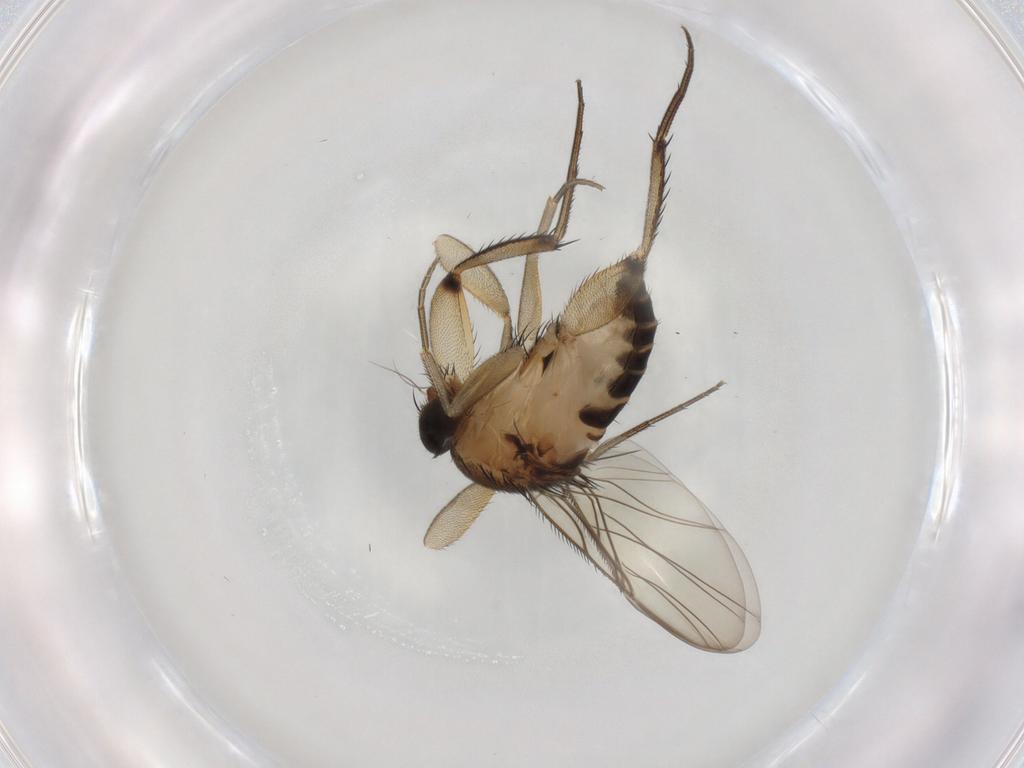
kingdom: Animalia
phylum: Arthropoda
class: Insecta
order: Diptera
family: Phoridae
